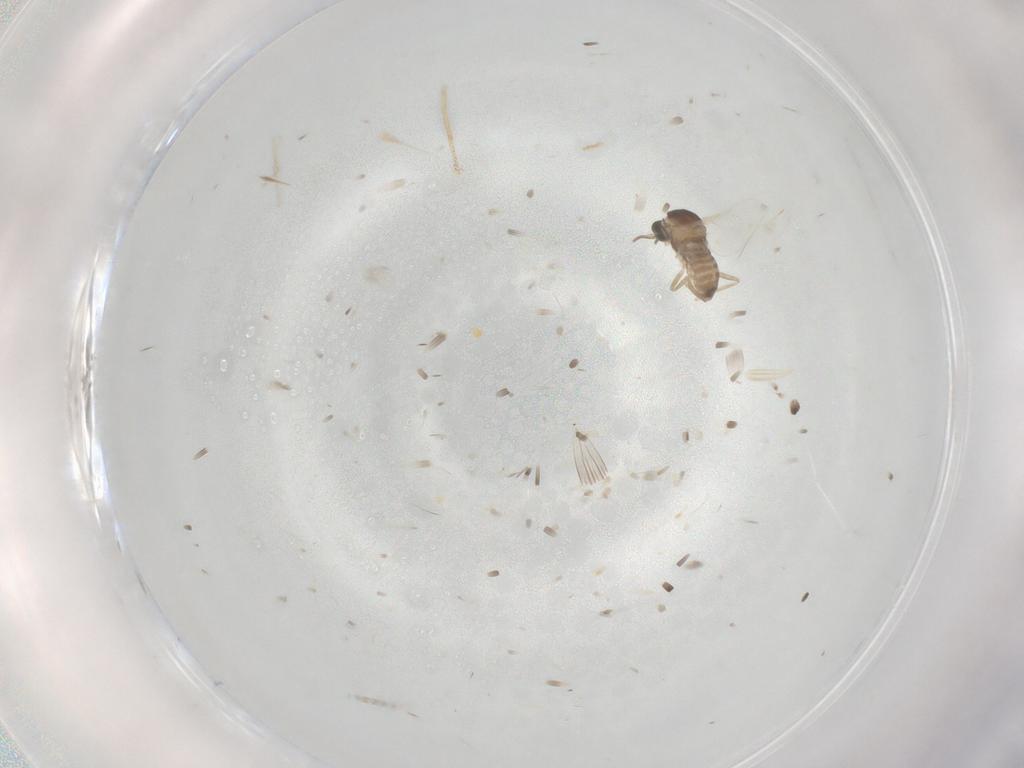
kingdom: Animalia
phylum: Arthropoda
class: Insecta
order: Diptera
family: Cecidomyiidae
